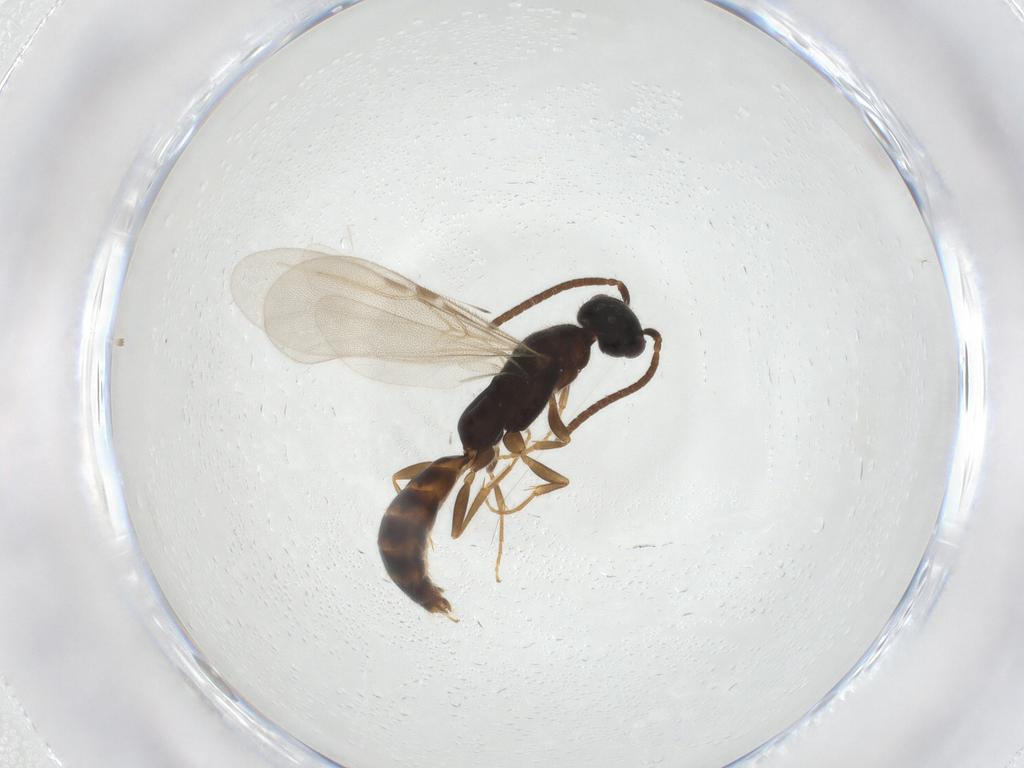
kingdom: Animalia
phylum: Arthropoda
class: Insecta
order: Hymenoptera
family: Bethylidae
